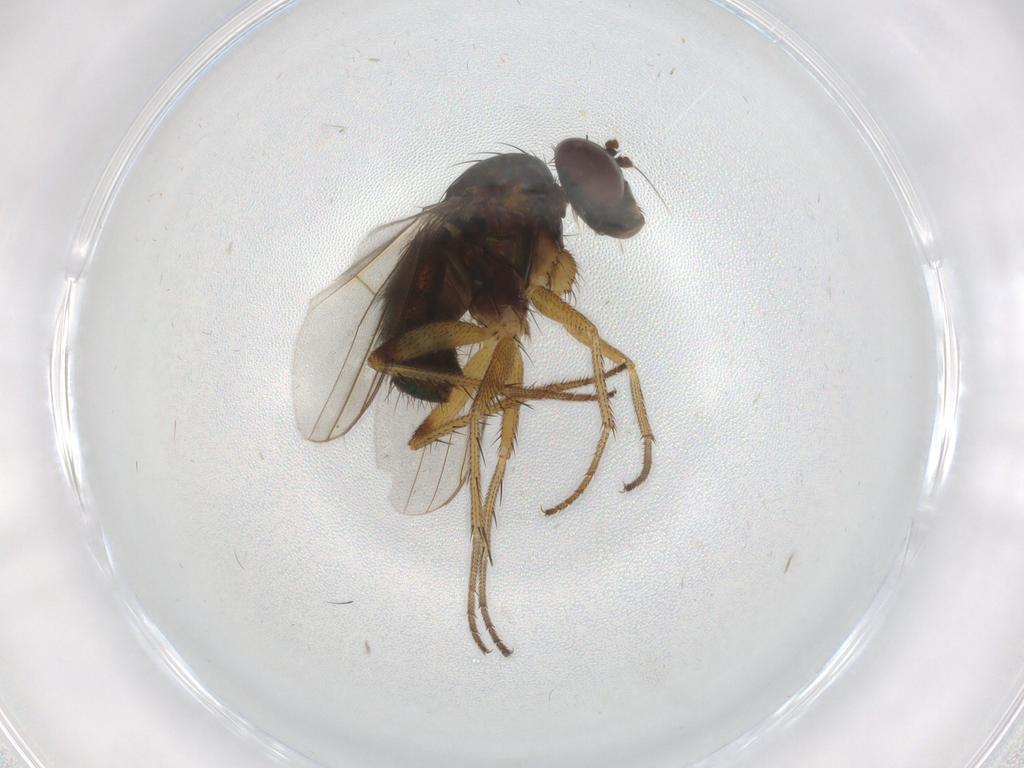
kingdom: Animalia
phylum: Arthropoda
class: Insecta
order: Diptera
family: Dolichopodidae
